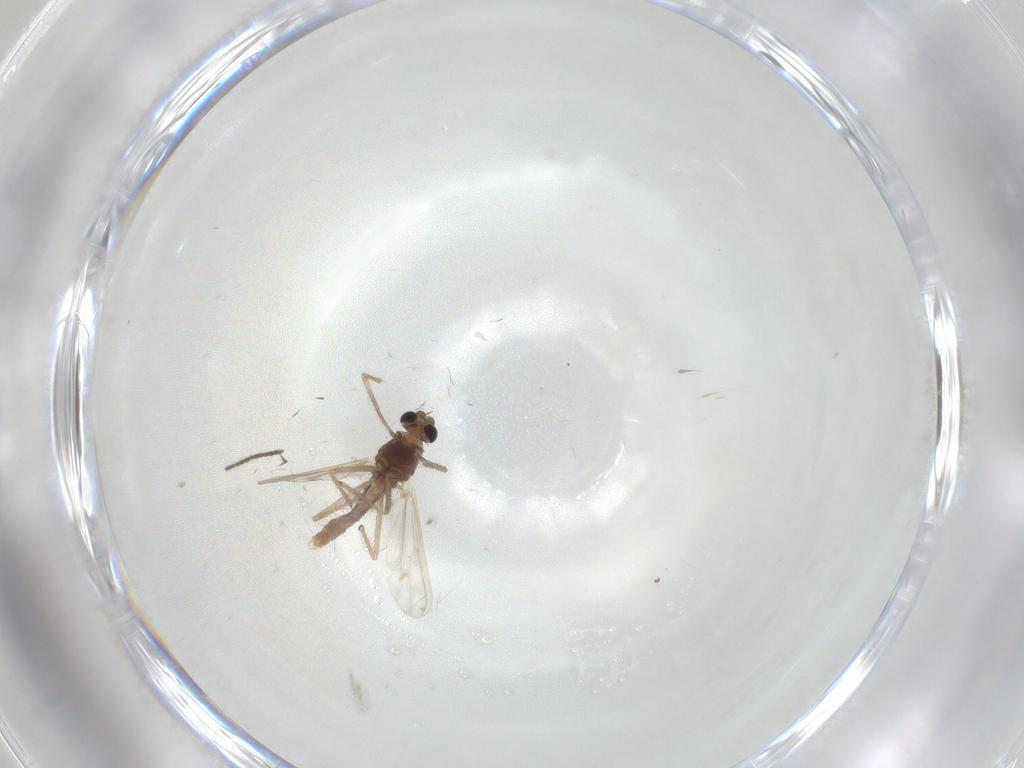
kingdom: Animalia
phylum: Arthropoda
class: Insecta
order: Diptera
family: Chironomidae
